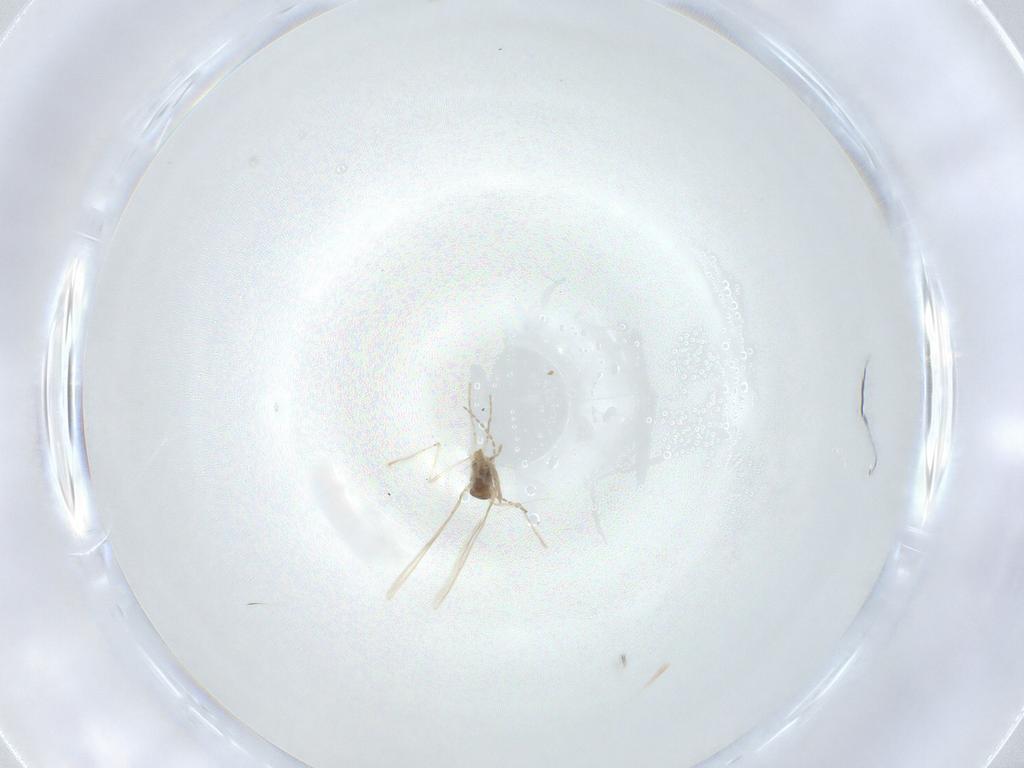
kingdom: Animalia
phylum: Arthropoda
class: Insecta
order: Diptera
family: Cecidomyiidae
